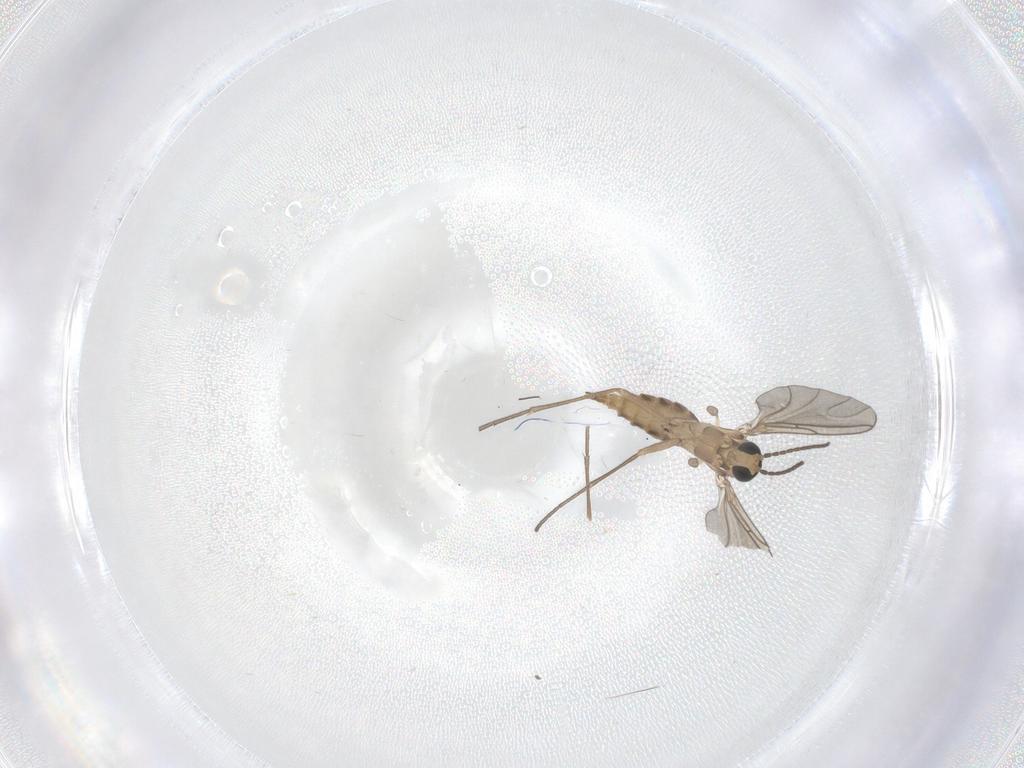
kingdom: Animalia
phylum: Arthropoda
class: Insecta
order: Diptera
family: Sciaridae
